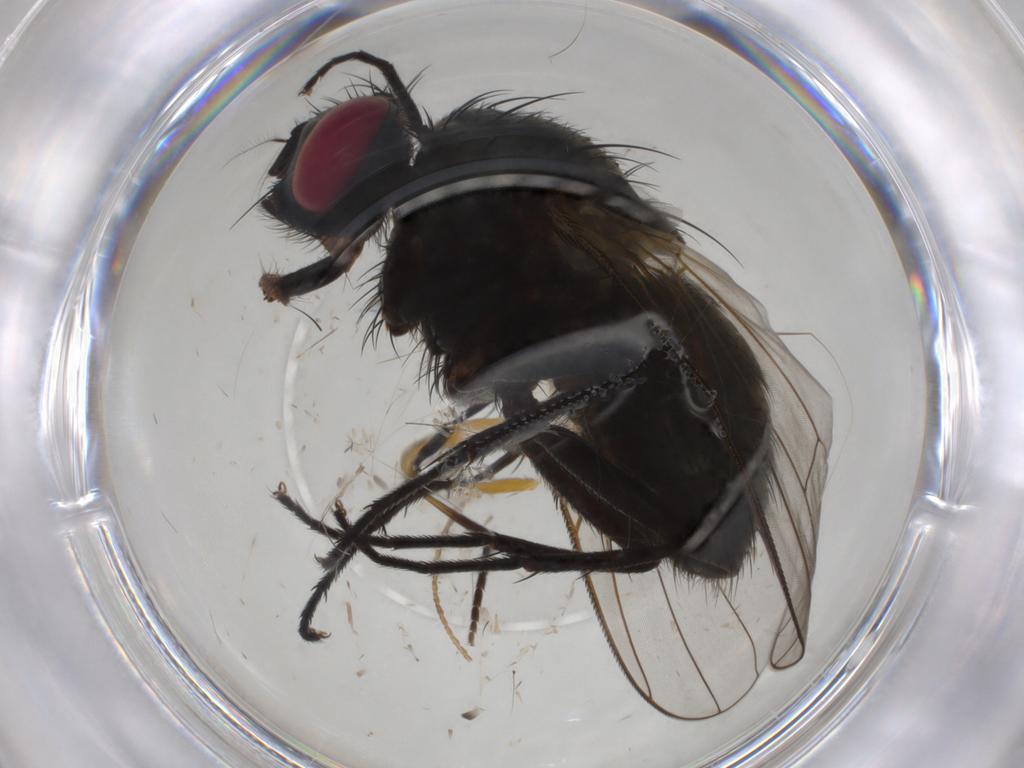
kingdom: Animalia
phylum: Arthropoda
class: Insecta
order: Diptera
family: Muscidae
